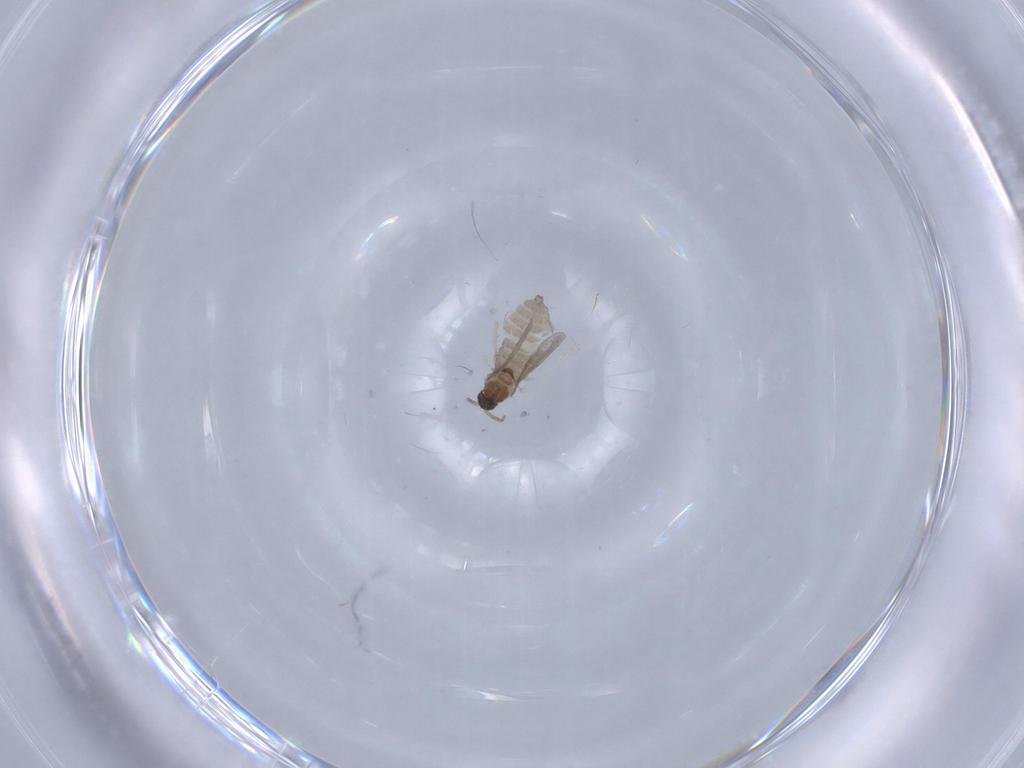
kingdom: Animalia
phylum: Arthropoda
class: Insecta
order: Diptera
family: Cecidomyiidae
